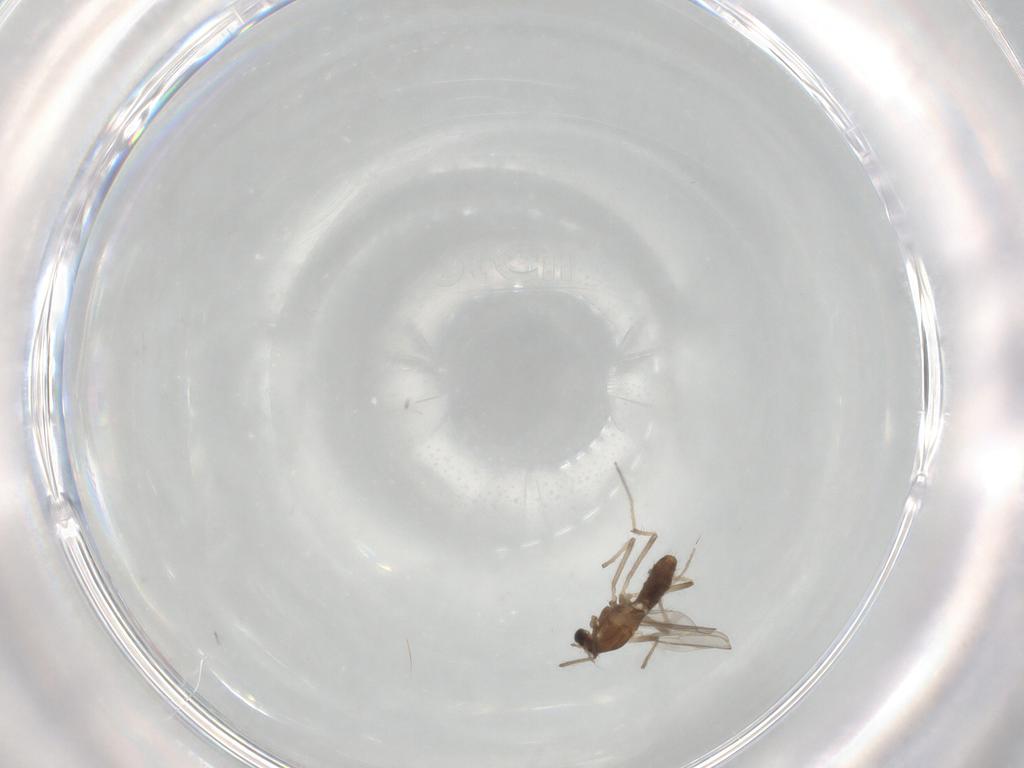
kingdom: Animalia
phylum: Arthropoda
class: Insecta
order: Diptera
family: Chironomidae
